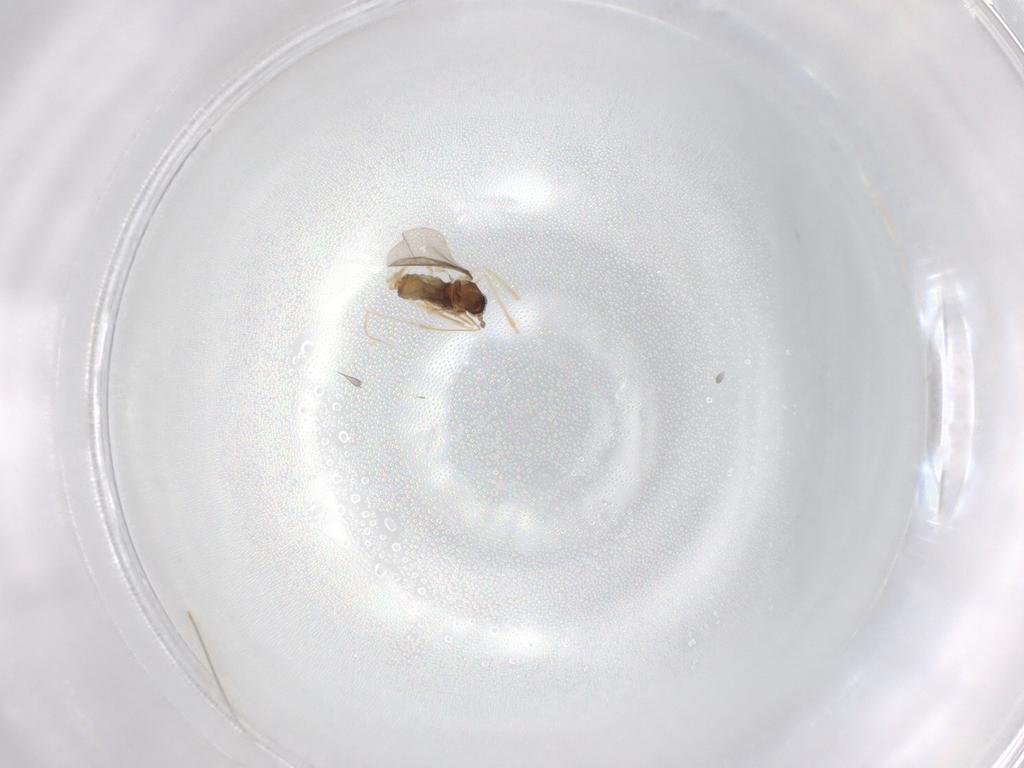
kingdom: Animalia
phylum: Arthropoda
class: Insecta
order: Diptera
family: Cecidomyiidae
